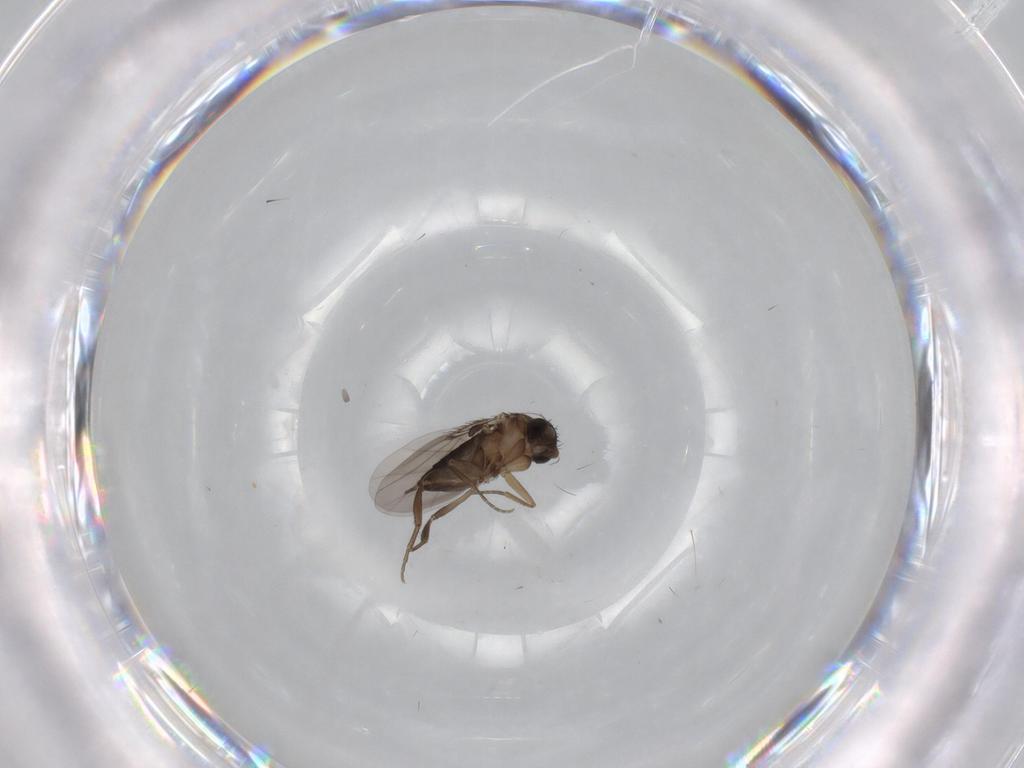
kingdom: Animalia
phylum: Arthropoda
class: Insecta
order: Diptera
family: Phoridae
